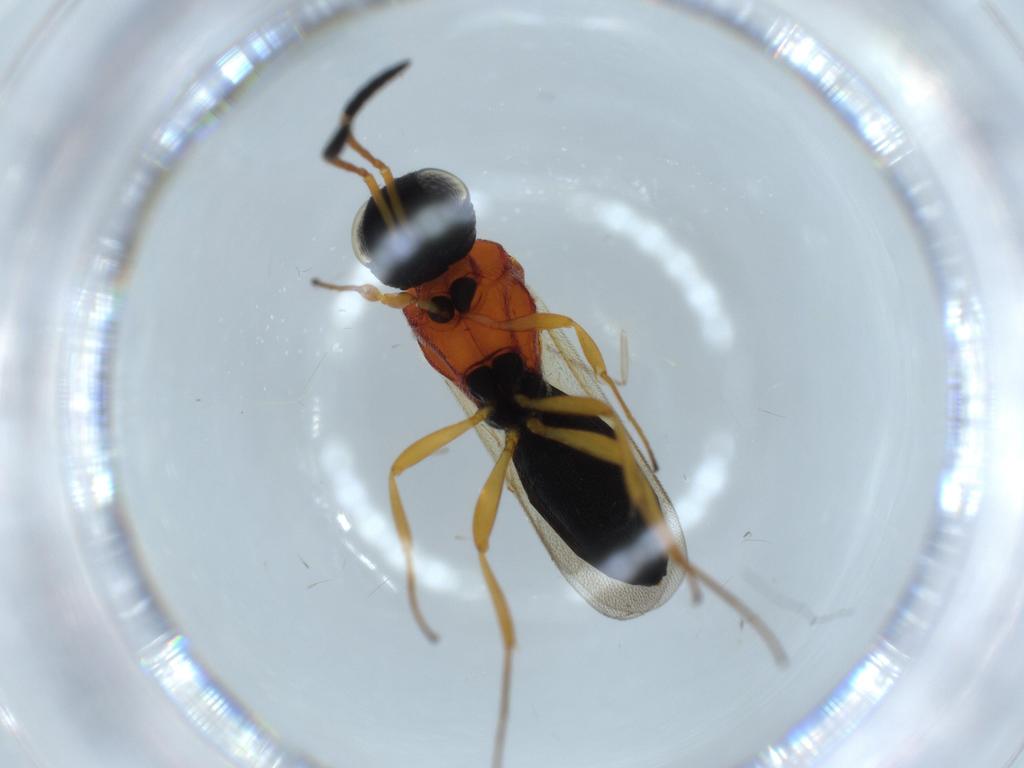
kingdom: Animalia
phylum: Arthropoda
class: Insecta
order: Hymenoptera
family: Scelionidae
